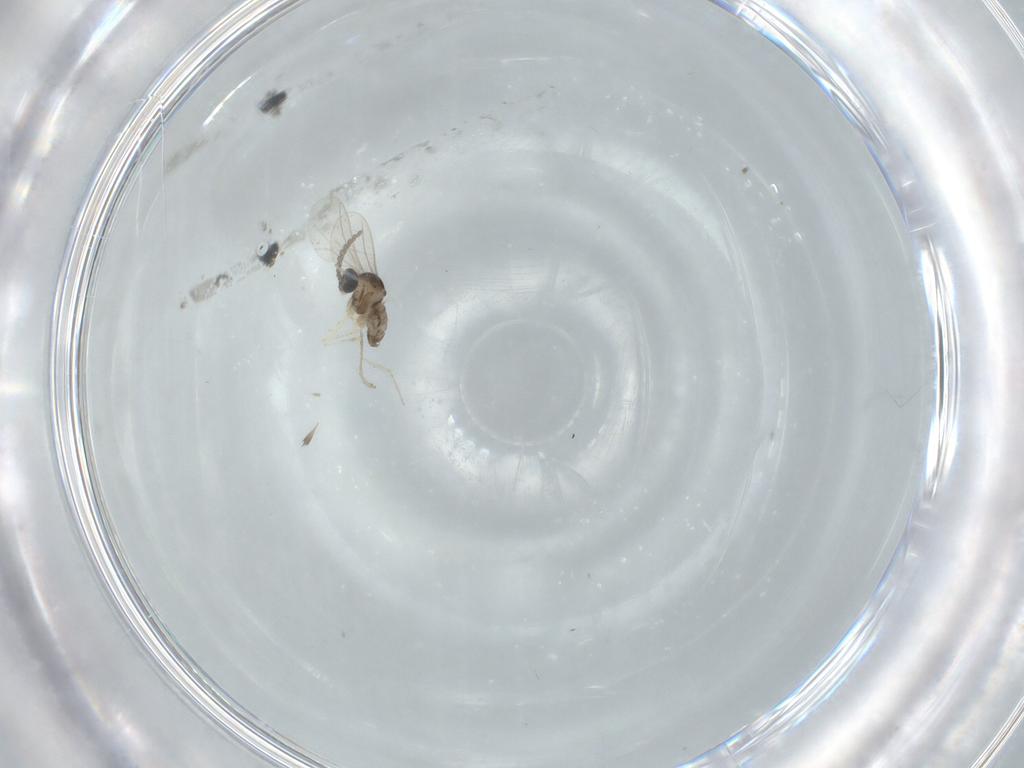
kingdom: Animalia
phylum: Arthropoda
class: Insecta
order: Diptera
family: Cecidomyiidae
